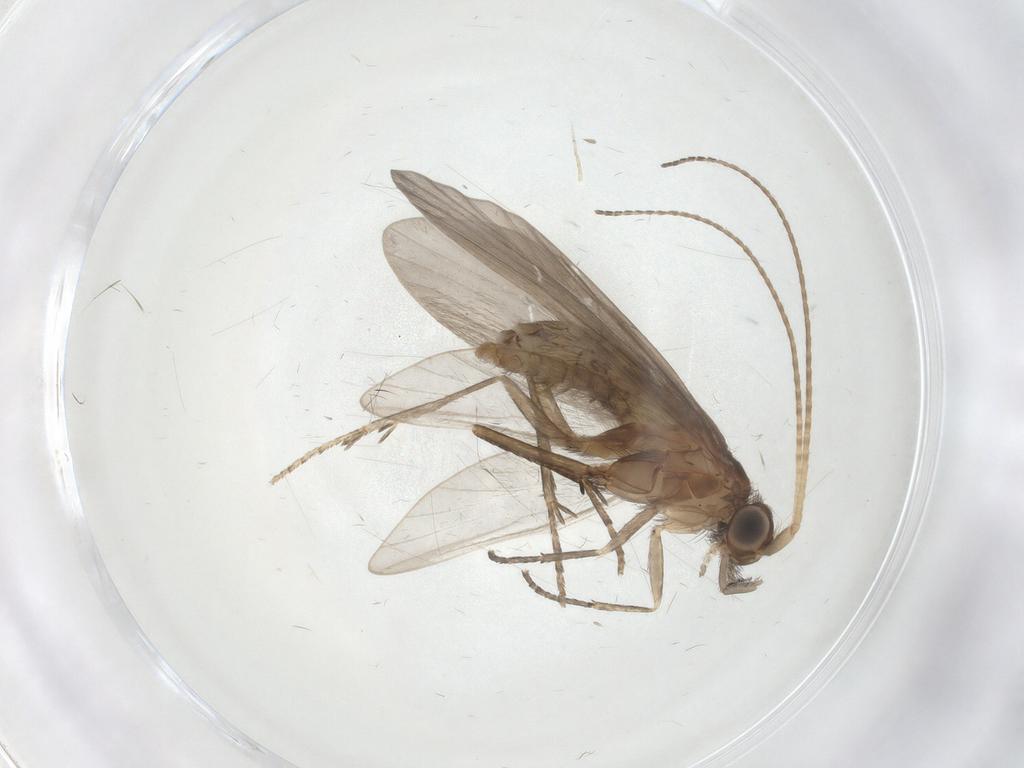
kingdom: Animalia
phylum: Arthropoda
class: Insecta
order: Trichoptera
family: Helicopsychidae
